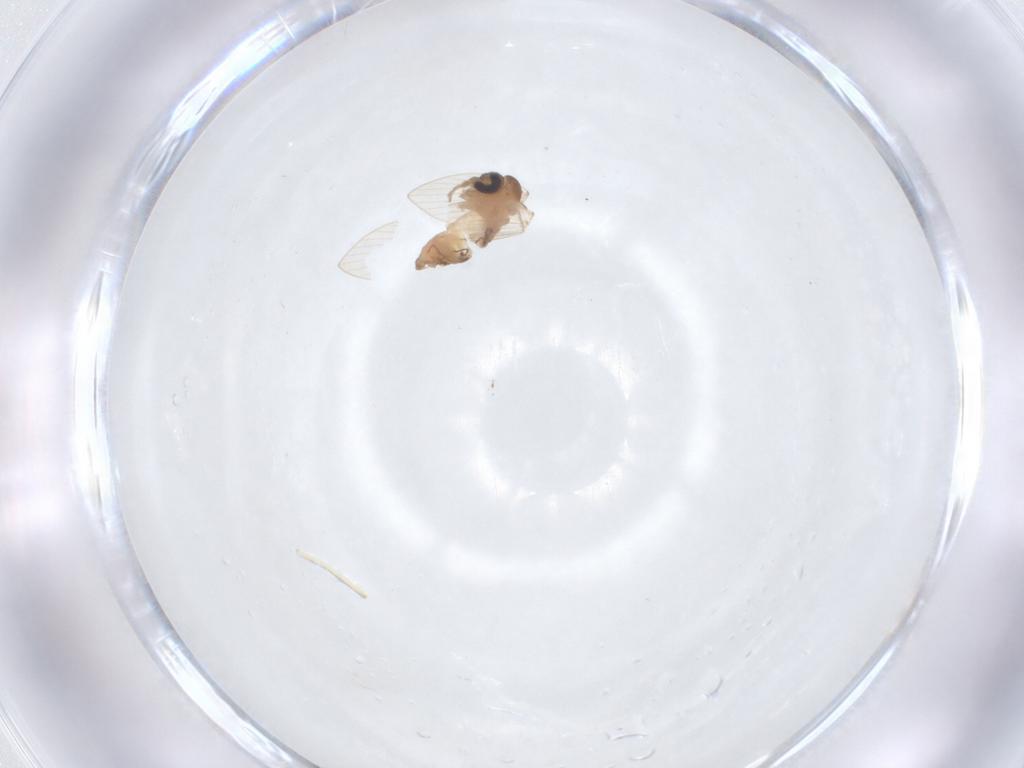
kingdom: Animalia
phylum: Arthropoda
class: Insecta
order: Diptera
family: Psychodidae
